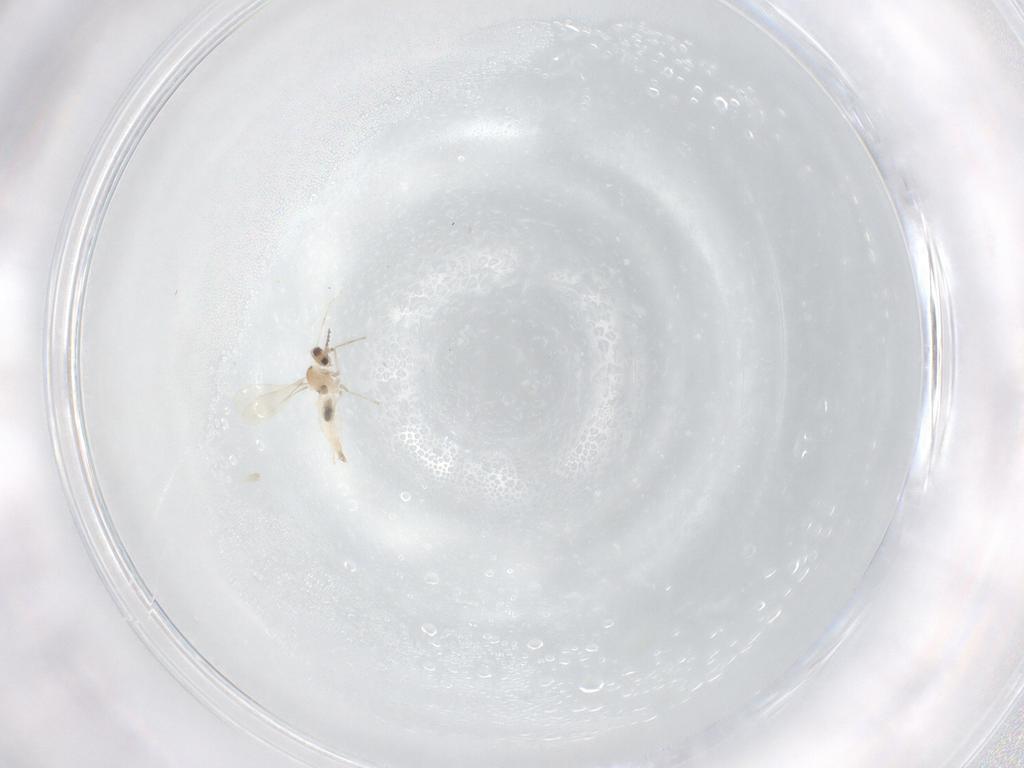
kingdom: Animalia
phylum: Arthropoda
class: Insecta
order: Diptera
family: Cecidomyiidae
